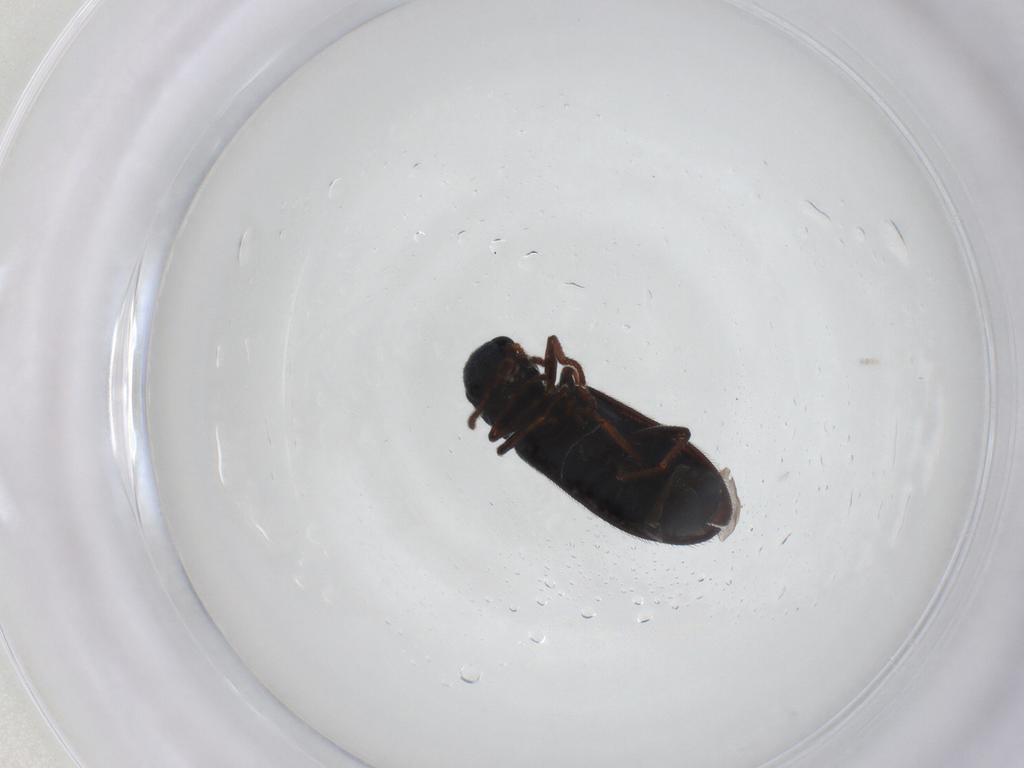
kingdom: Animalia
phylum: Arthropoda
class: Insecta
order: Coleoptera
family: Melyridae
